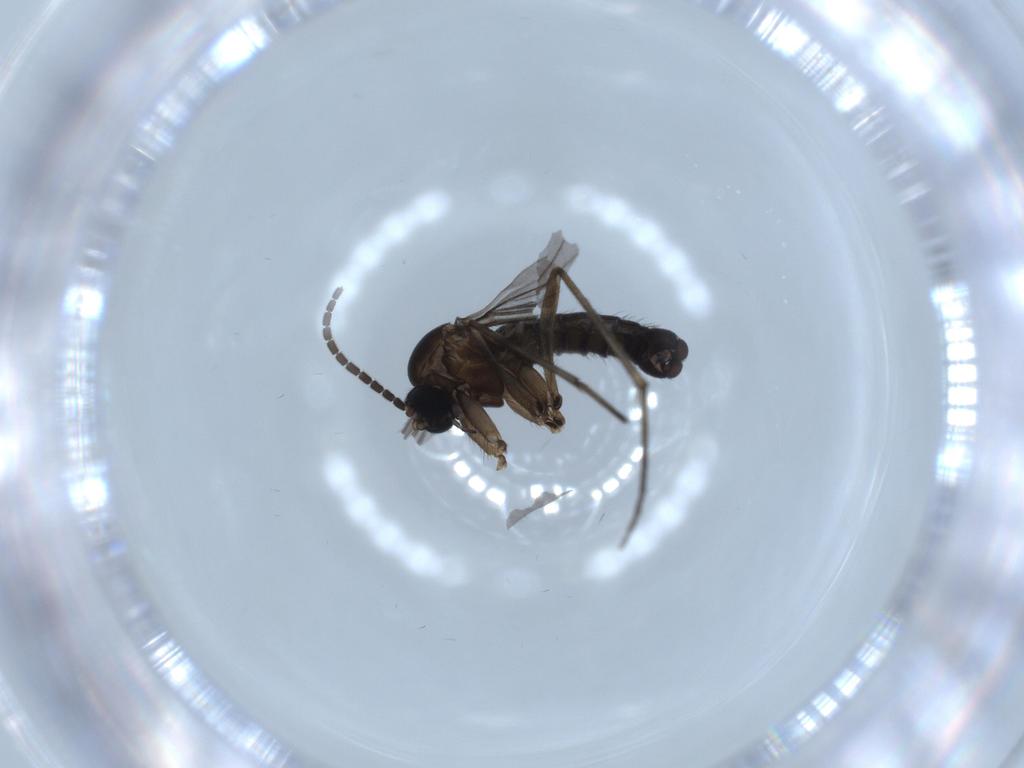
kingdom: Animalia
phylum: Arthropoda
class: Insecta
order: Diptera
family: Sciaridae
